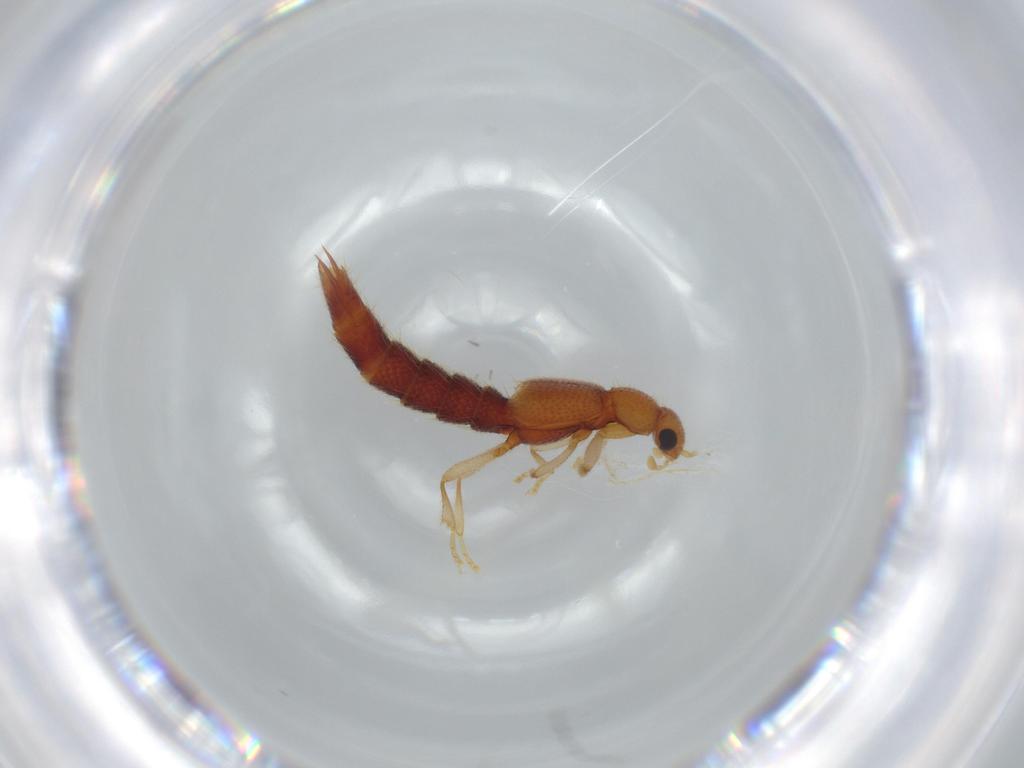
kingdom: Animalia
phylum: Arthropoda
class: Insecta
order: Coleoptera
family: Staphylinidae
